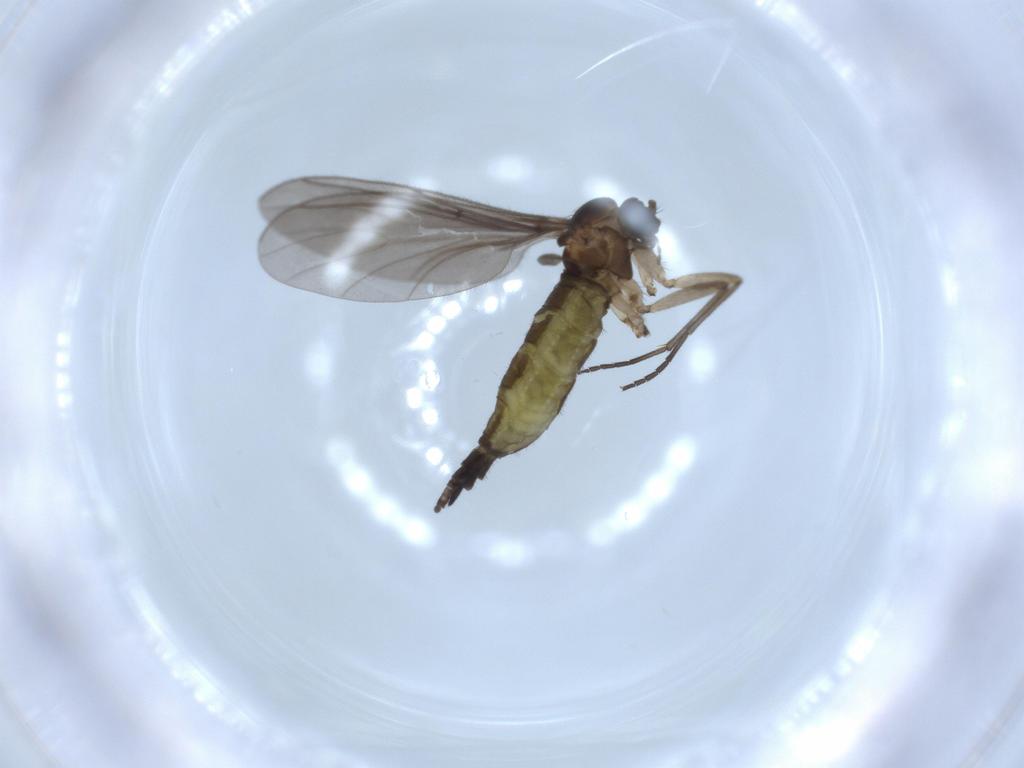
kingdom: Animalia
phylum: Arthropoda
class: Insecta
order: Diptera
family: Sciaridae
